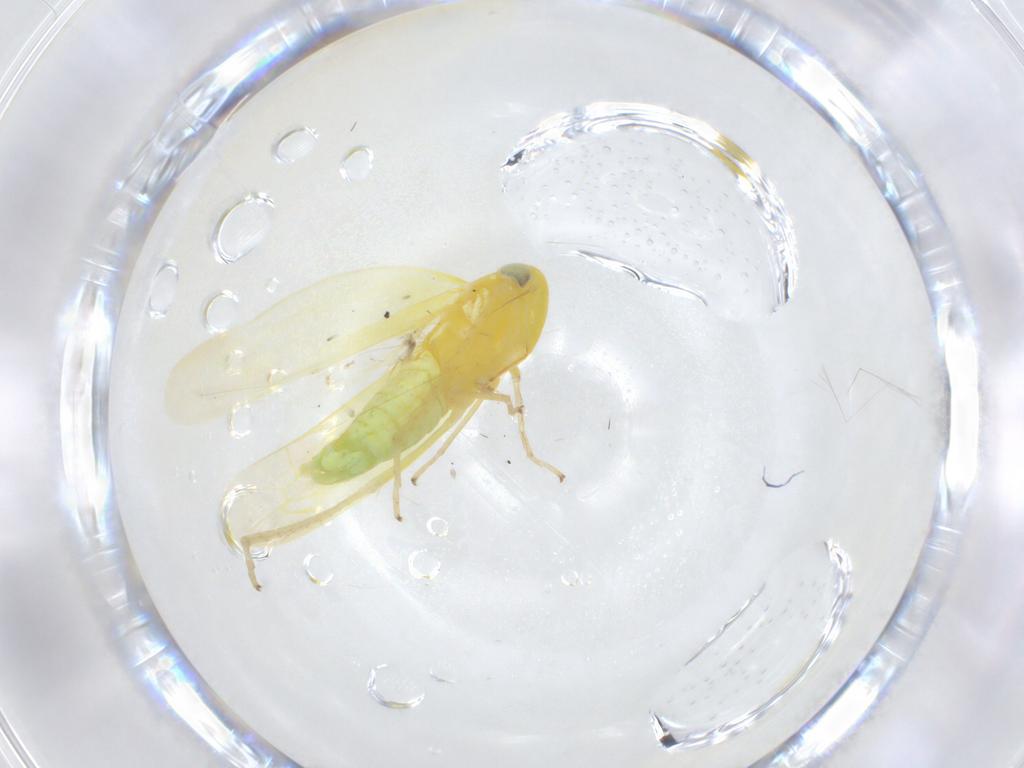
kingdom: Animalia
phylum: Arthropoda
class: Insecta
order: Hemiptera
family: Cicadellidae
